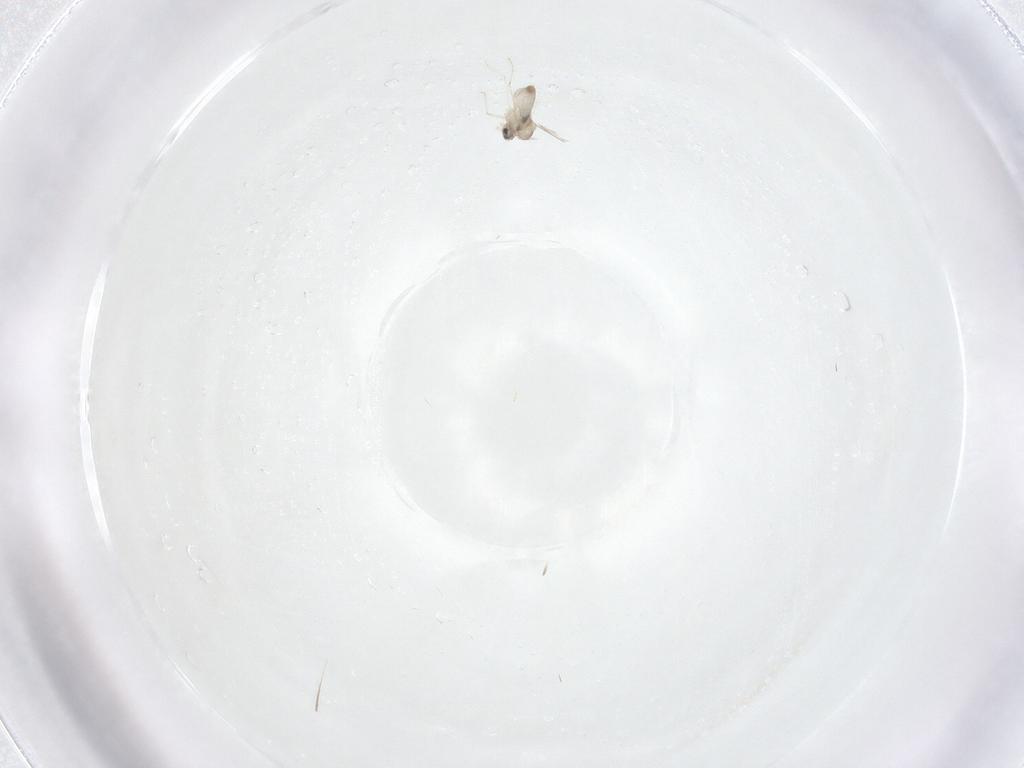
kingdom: Animalia
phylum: Arthropoda
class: Insecta
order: Diptera
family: Cecidomyiidae
